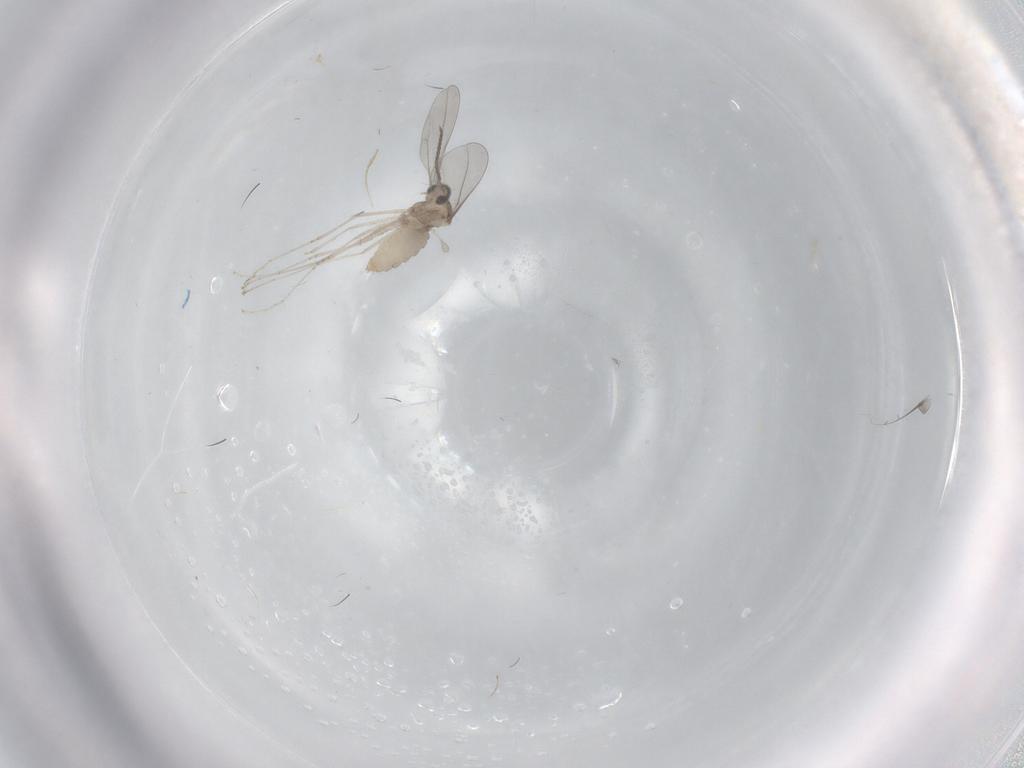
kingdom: Animalia
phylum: Arthropoda
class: Insecta
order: Diptera
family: Cecidomyiidae
